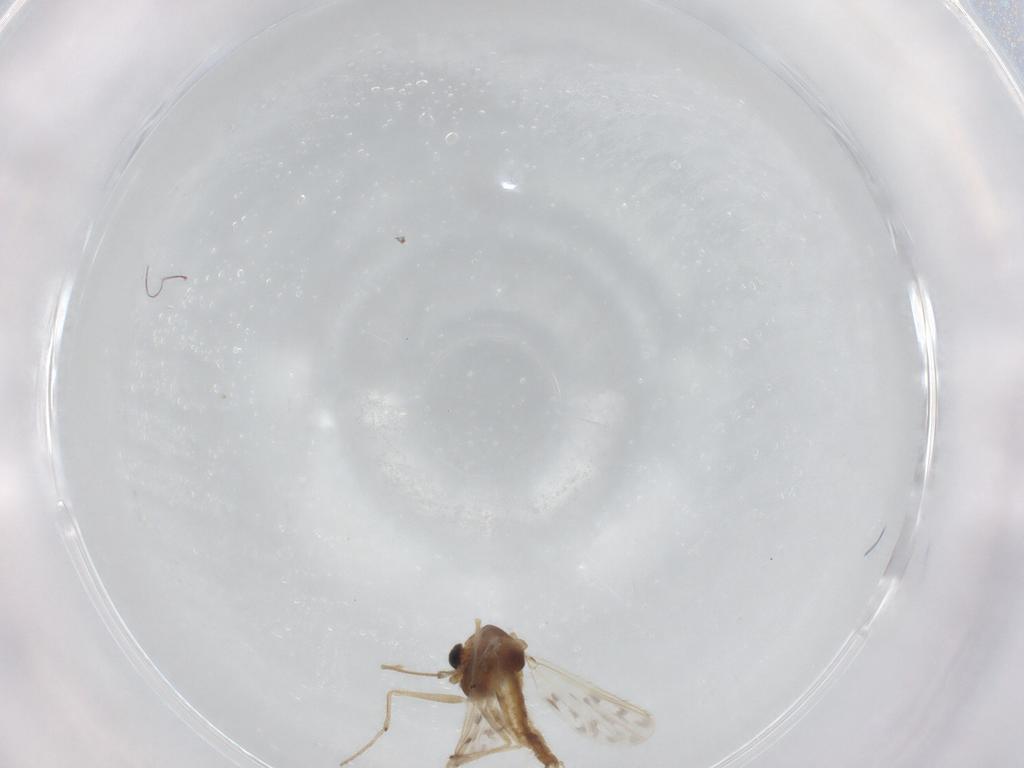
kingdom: Animalia
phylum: Arthropoda
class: Insecta
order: Diptera
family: Chironomidae
